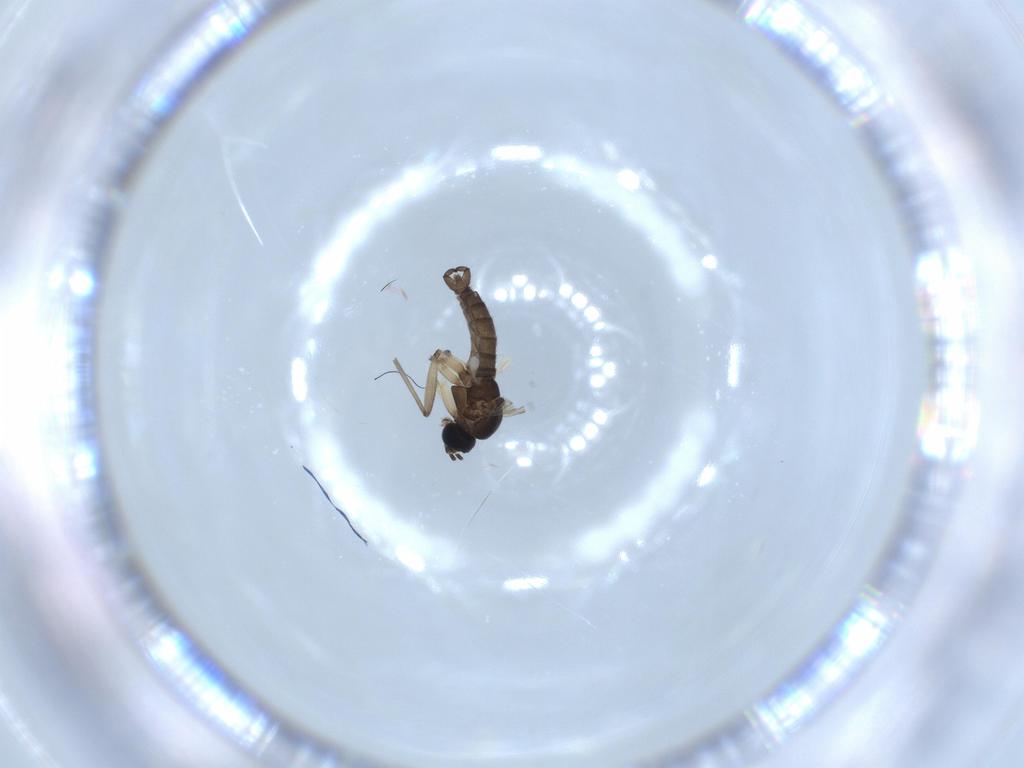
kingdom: Animalia
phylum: Arthropoda
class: Insecta
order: Diptera
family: Sciaridae
